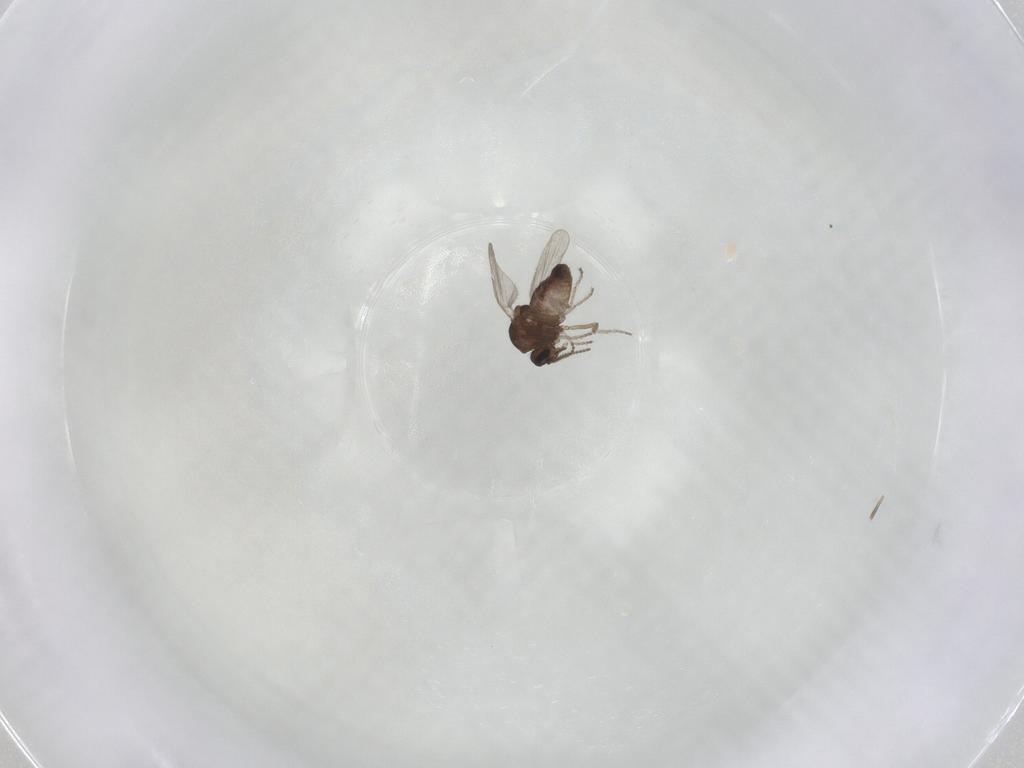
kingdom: Animalia
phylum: Arthropoda
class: Insecta
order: Diptera
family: Ceratopogonidae
